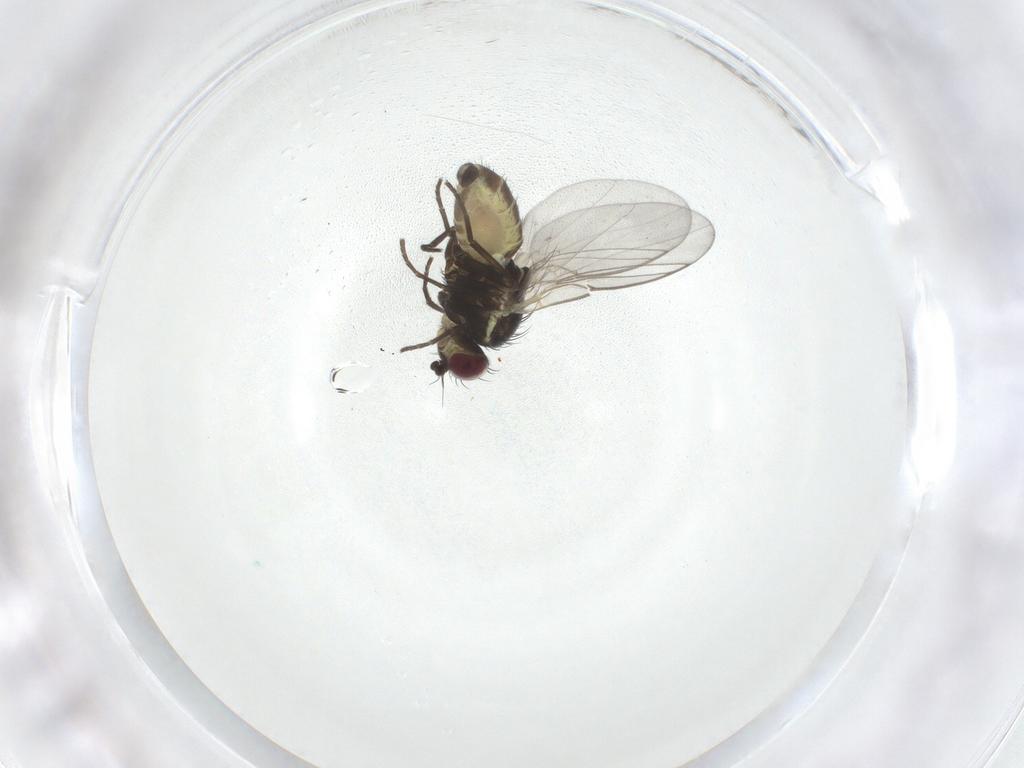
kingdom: Animalia
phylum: Arthropoda
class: Insecta
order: Diptera
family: Agromyzidae
